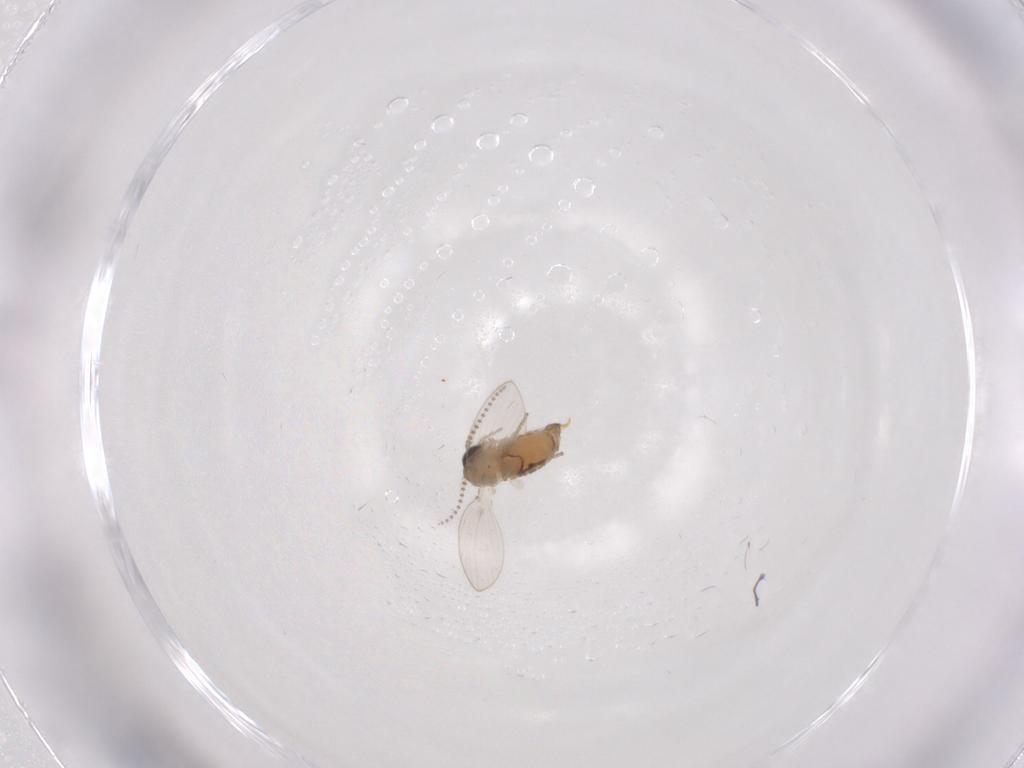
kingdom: Animalia
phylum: Arthropoda
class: Insecta
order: Diptera
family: Psychodidae
